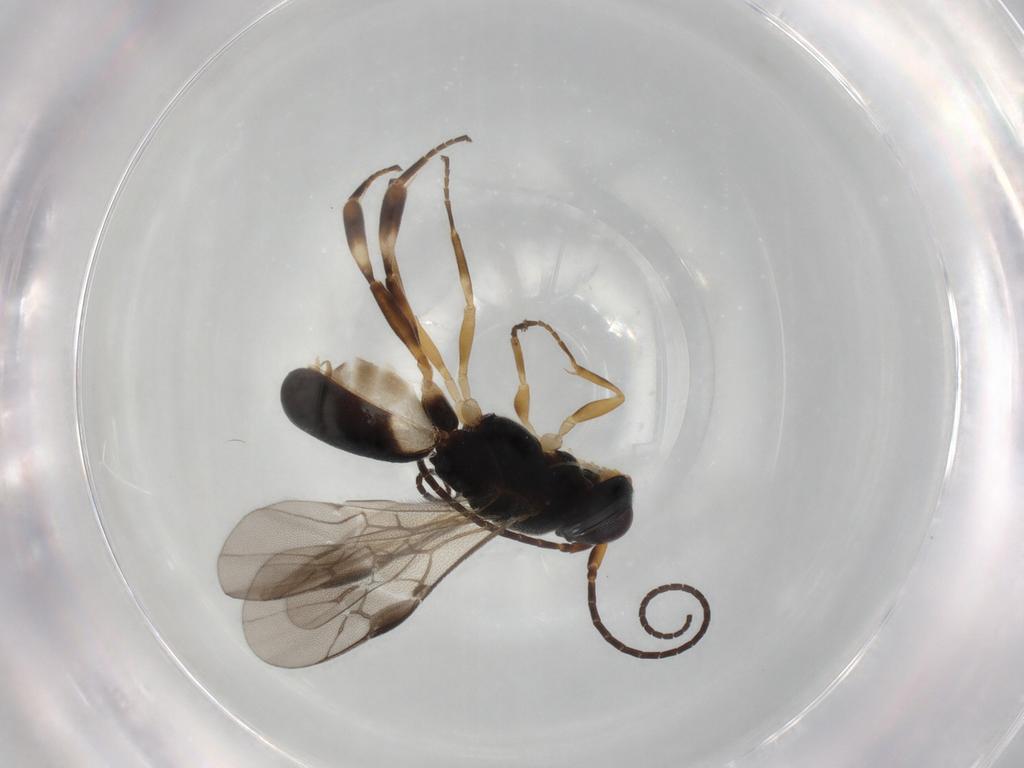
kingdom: Animalia
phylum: Arthropoda
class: Insecta
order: Hymenoptera
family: Braconidae
